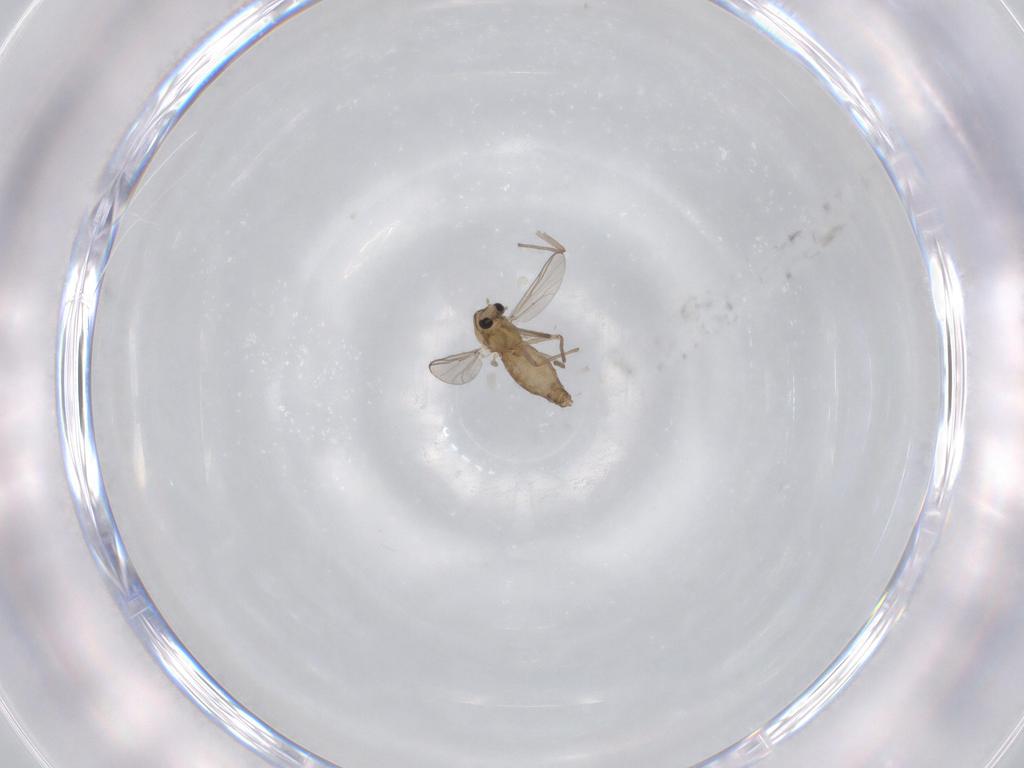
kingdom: Animalia
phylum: Arthropoda
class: Insecta
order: Diptera
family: Chironomidae
